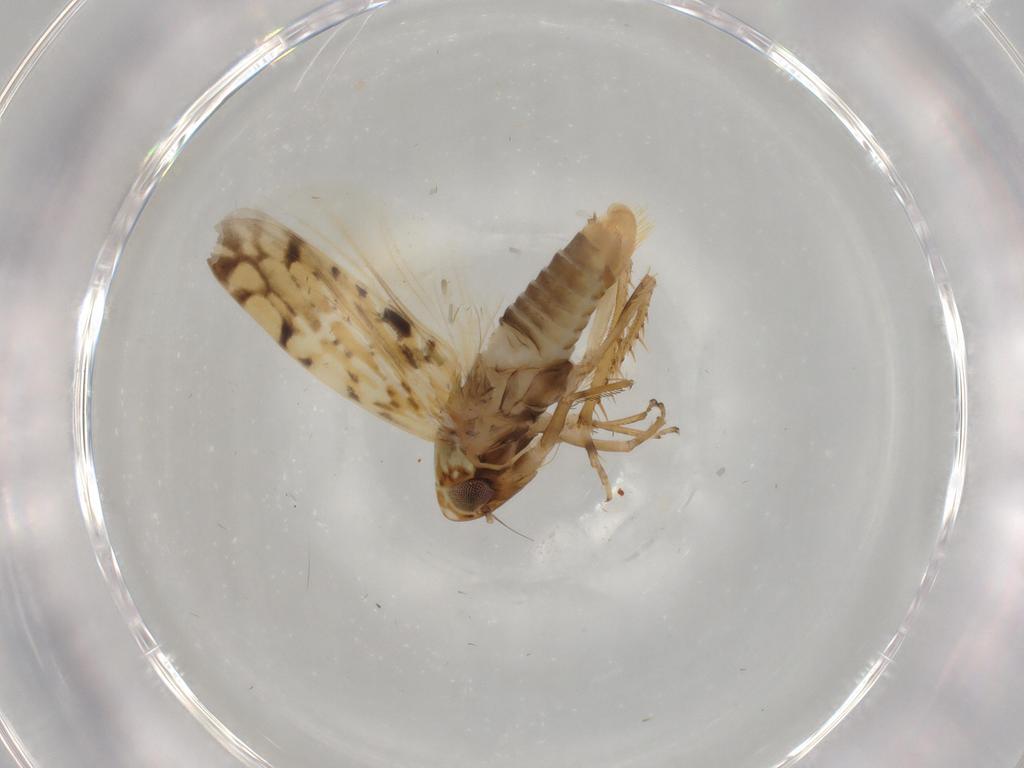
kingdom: Animalia
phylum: Arthropoda
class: Insecta
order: Hemiptera
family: Cicadellidae
